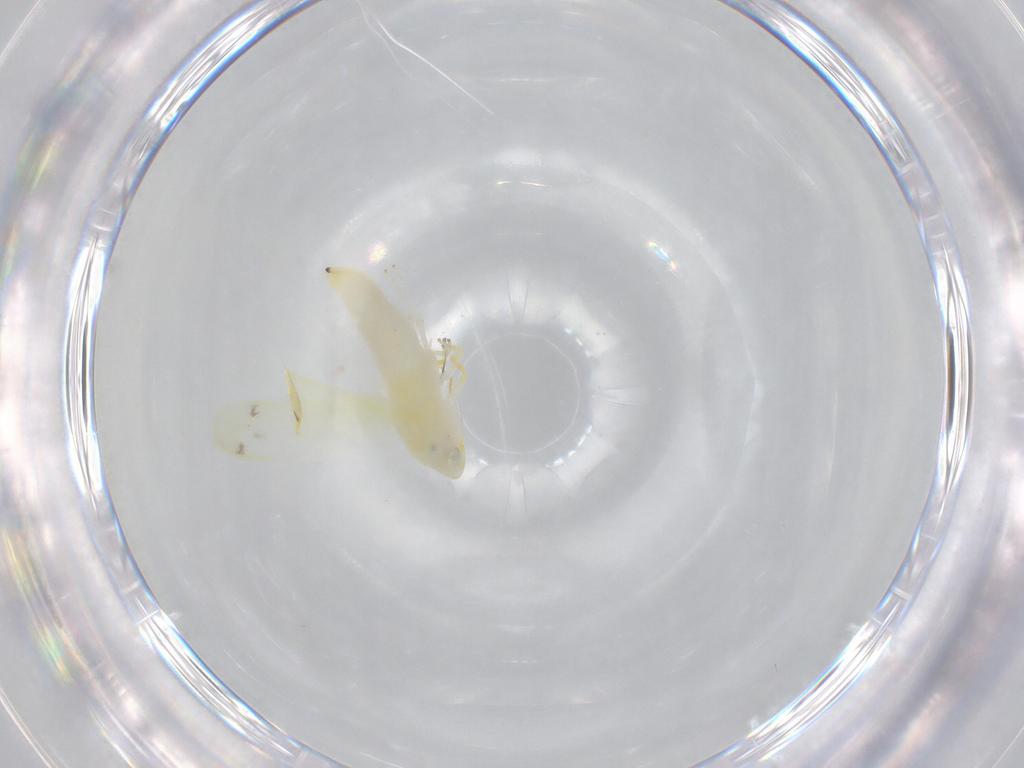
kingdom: Animalia
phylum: Arthropoda
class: Insecta
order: Hemiptera
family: Cicadellidae
